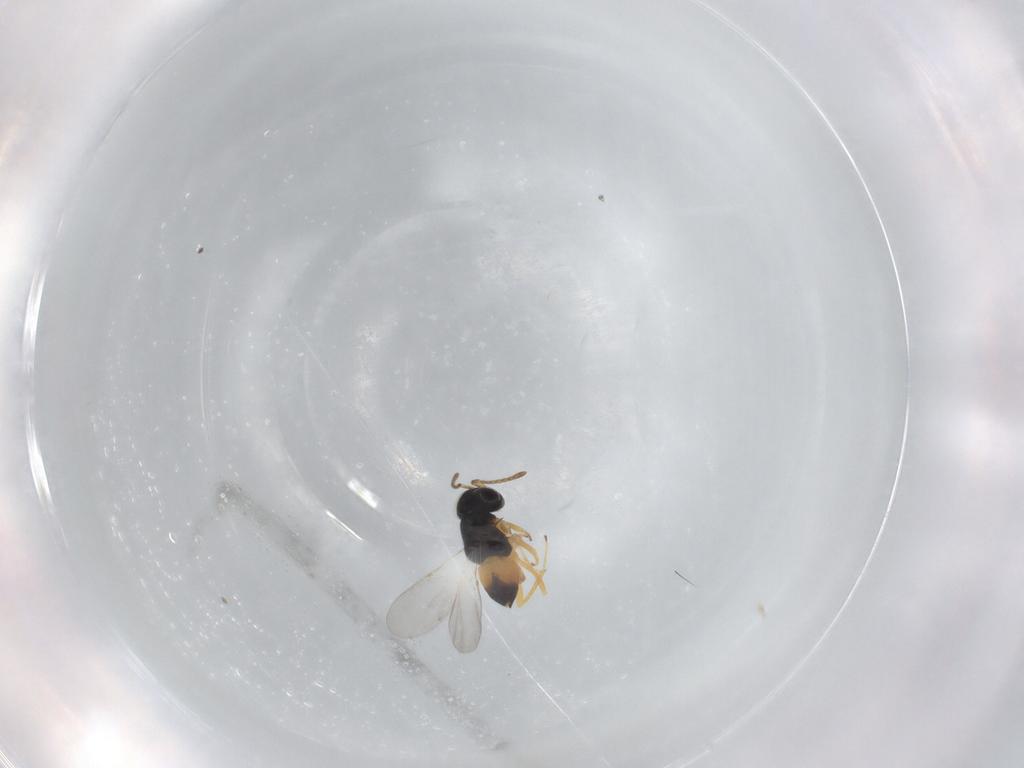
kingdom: Animalia
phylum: Arthropoda
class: Insecta
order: Hymenoptera
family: Encyrtidae
